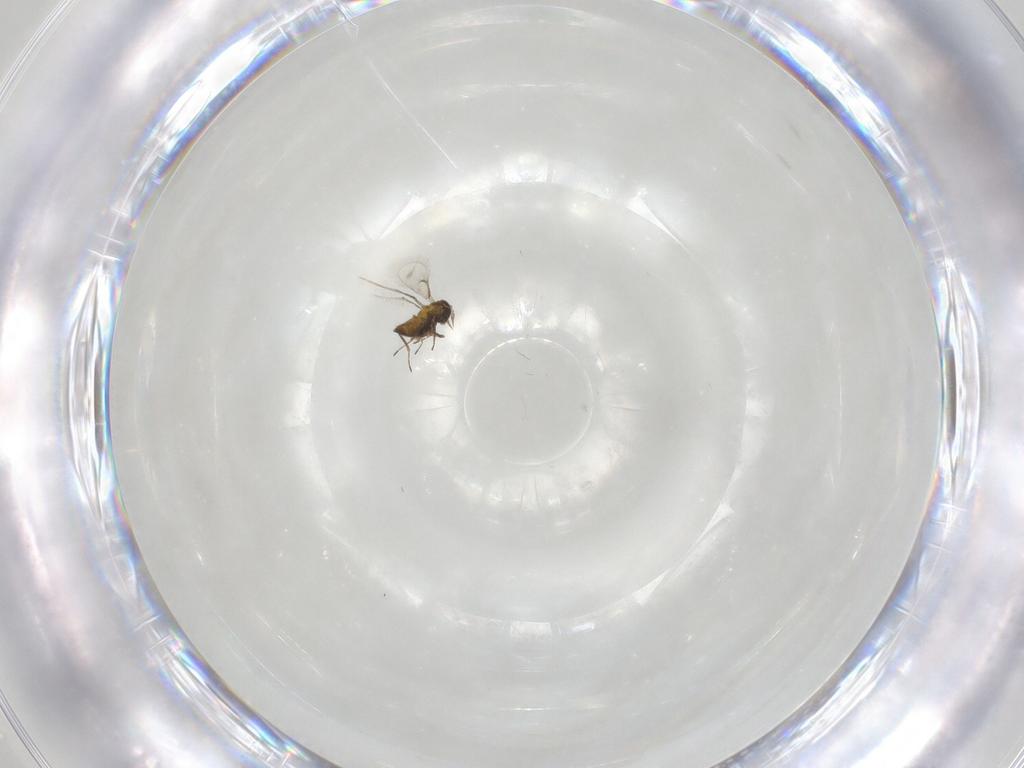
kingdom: Animalia
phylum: Arthropoda
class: Insecta
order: Hymenoptera
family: Trichogrammatidae
